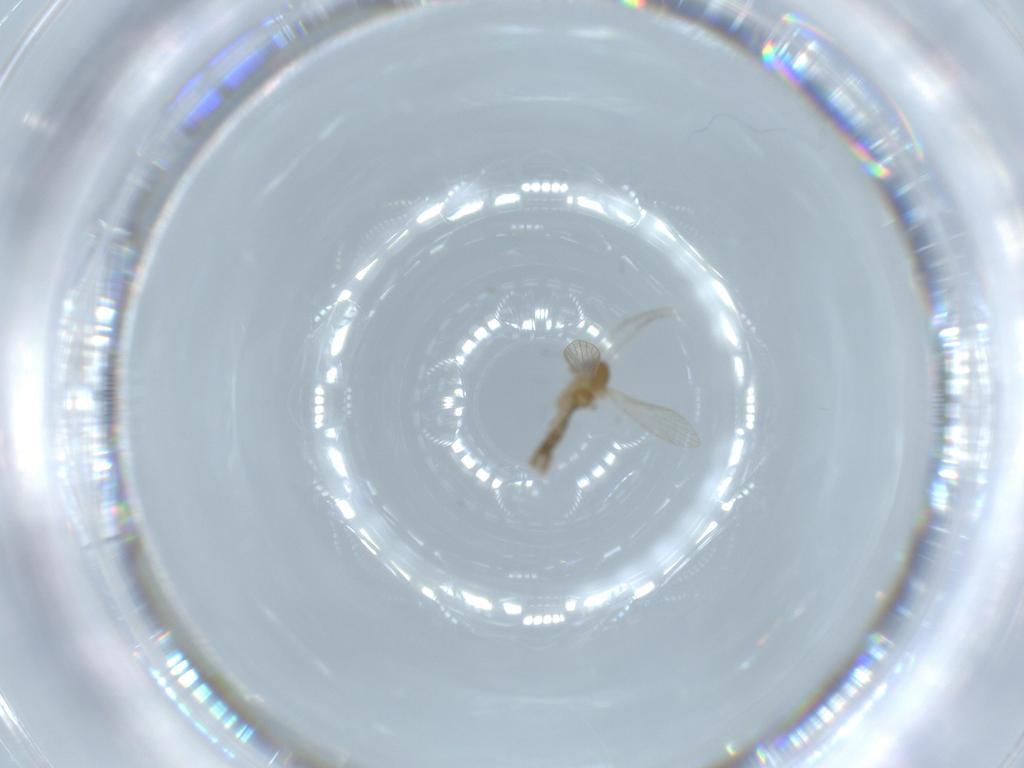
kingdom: Animalia
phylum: Arthropoda
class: Insecta
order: Diptera
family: Psychodidae
